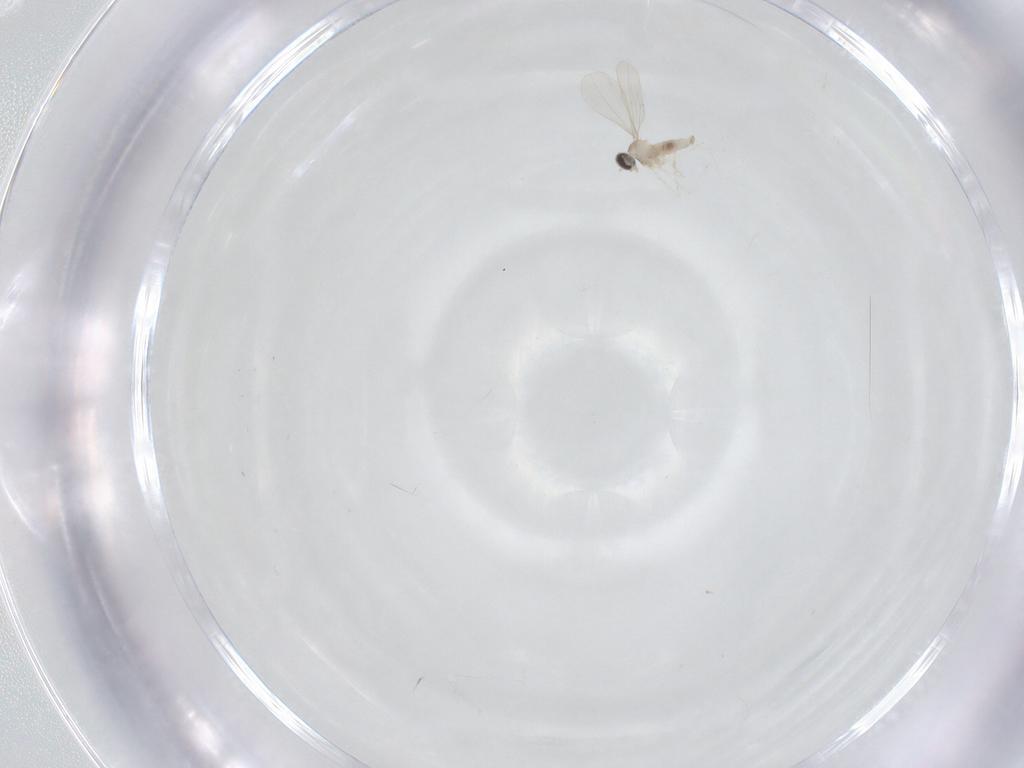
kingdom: Animalia
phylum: Arthropoda
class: Insecta
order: Diptera
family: Cecidomyiidae
